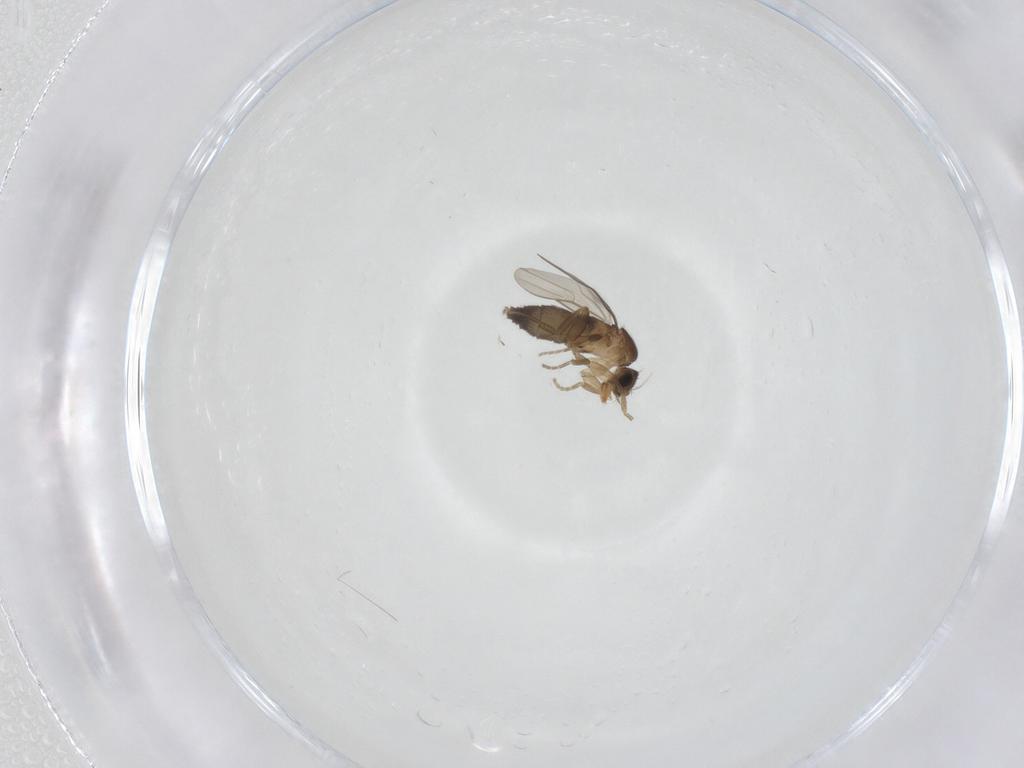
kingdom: Animalia
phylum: Arthropoda
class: Insecta
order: Diptera
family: Phoridae
